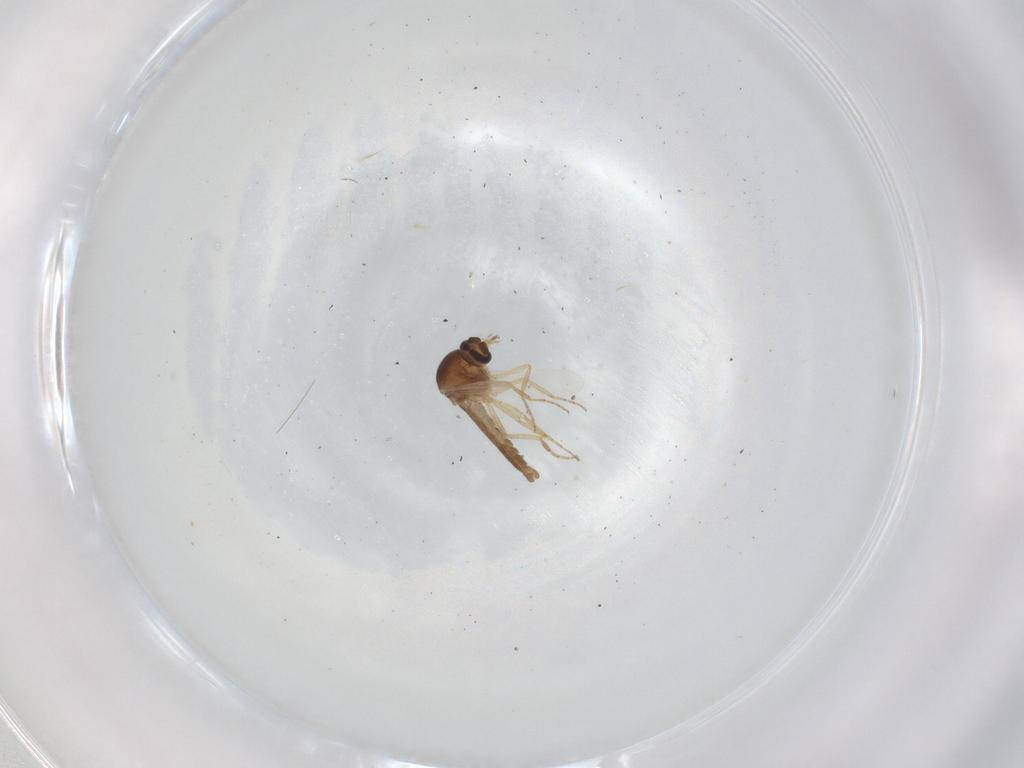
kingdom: Animalia
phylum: Arthropoda
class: Insecta
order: Diptera
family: Ceratopogonidae
